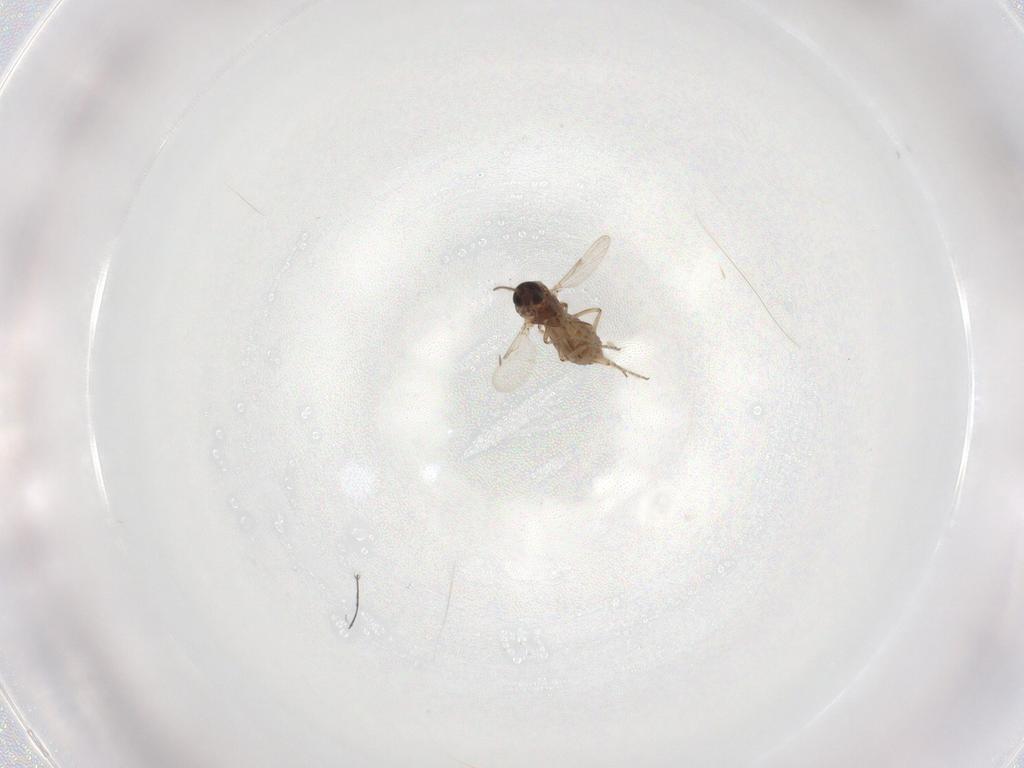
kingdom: Animalia
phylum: Arthropoda
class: Insecta
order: Diptera
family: Ceratopogonidae
